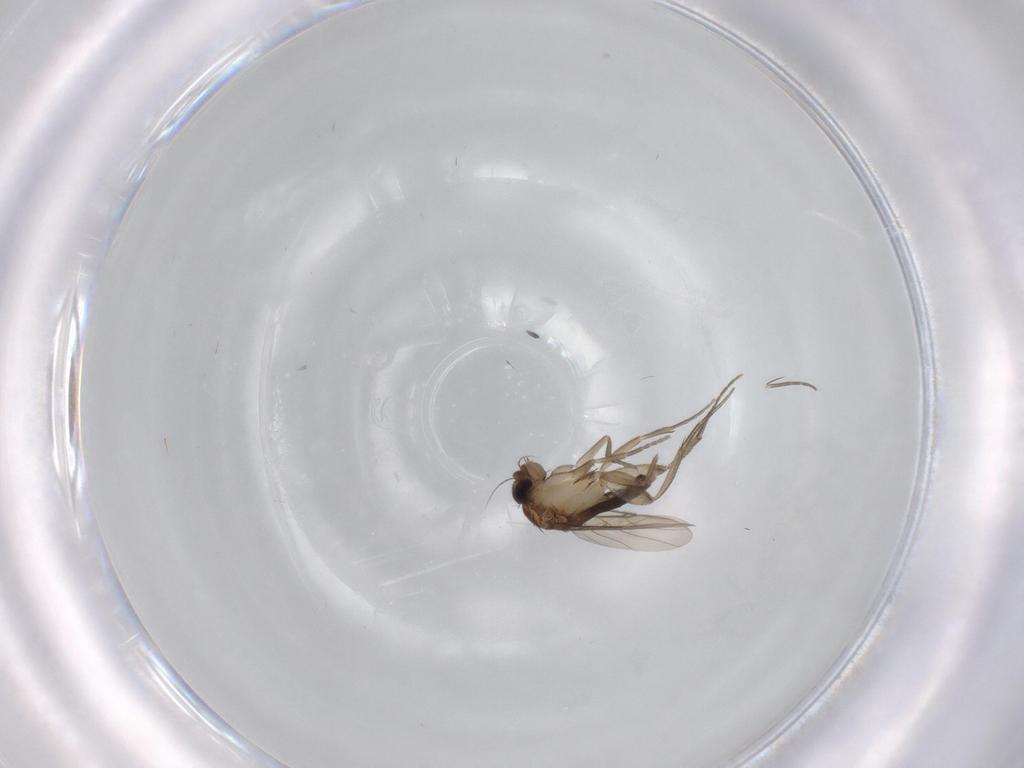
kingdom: Animalia
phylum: Arthropoda
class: Insecta
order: Diptera
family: Phoridae
